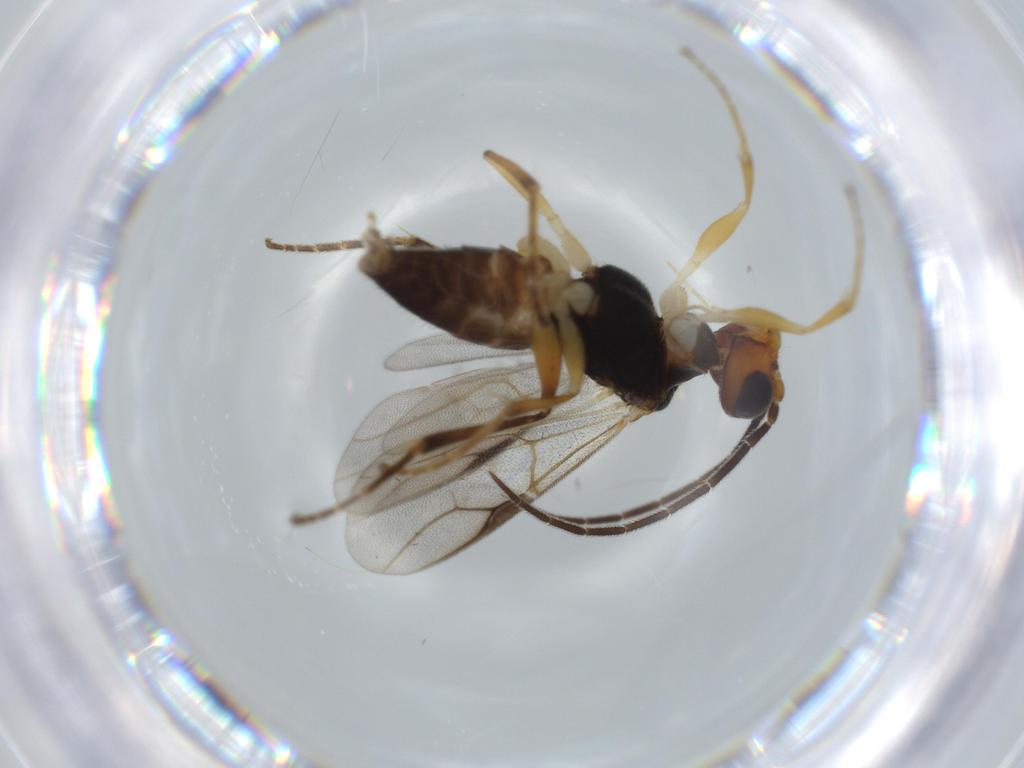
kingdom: Animalia
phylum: Arthropoda
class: Insecta
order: Hymenoptera
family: Dryinidae
